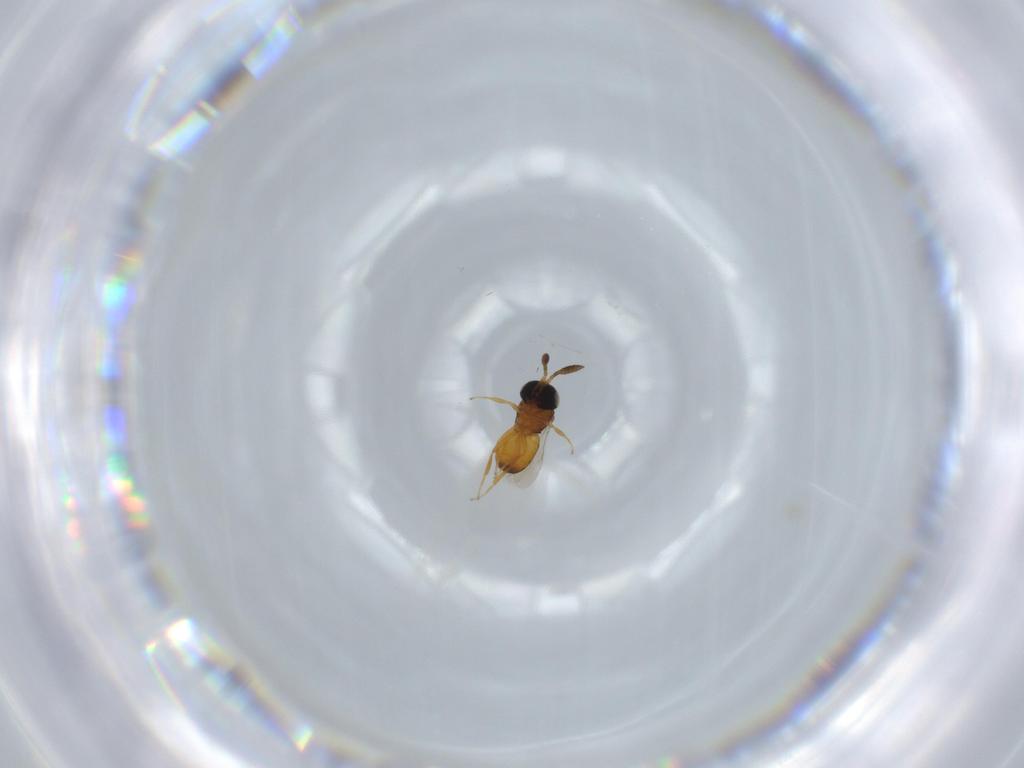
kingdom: Animalia
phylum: Arthropoda
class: Insecta
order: Hymenoptera
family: Scelionidae
